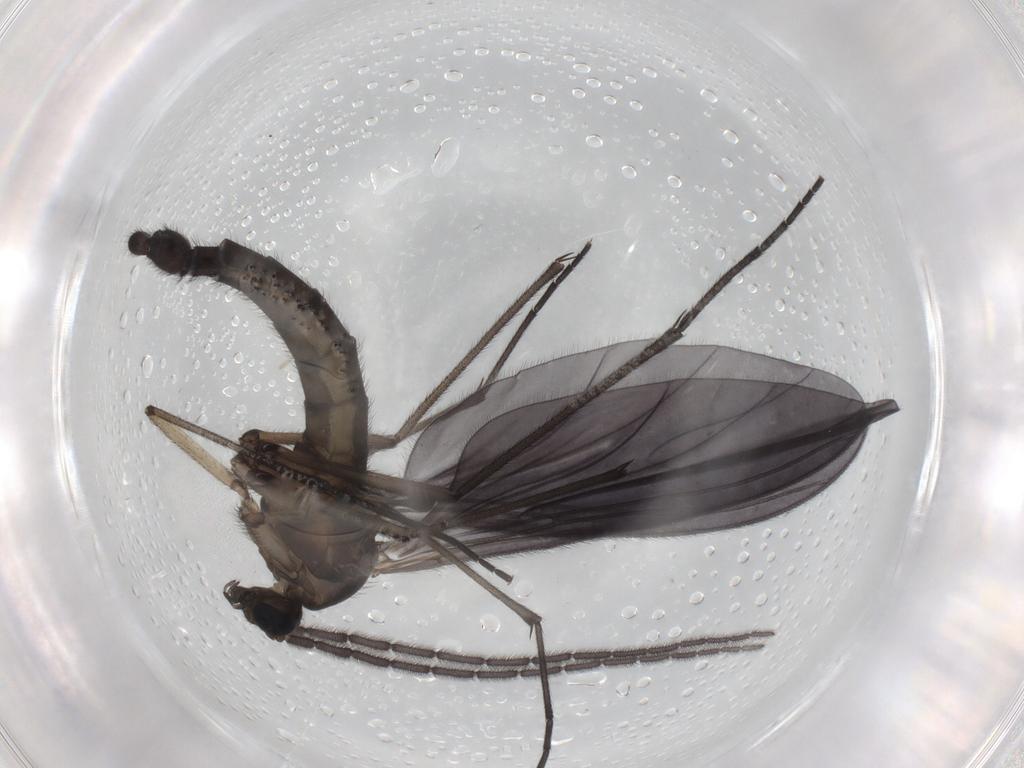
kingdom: Animalia
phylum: Arthropoda
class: Insecta
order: Diptera
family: Sciaridae
